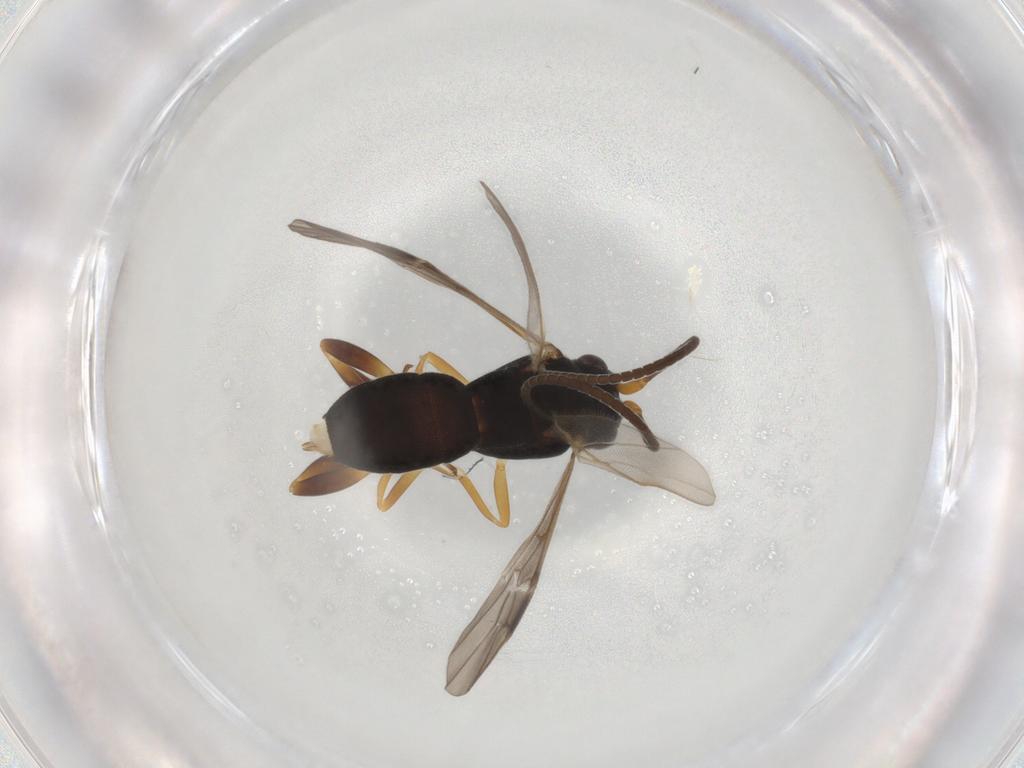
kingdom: Animalia
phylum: Arthropoda
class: Insecta
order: Hymenoptera
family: Braconidae
